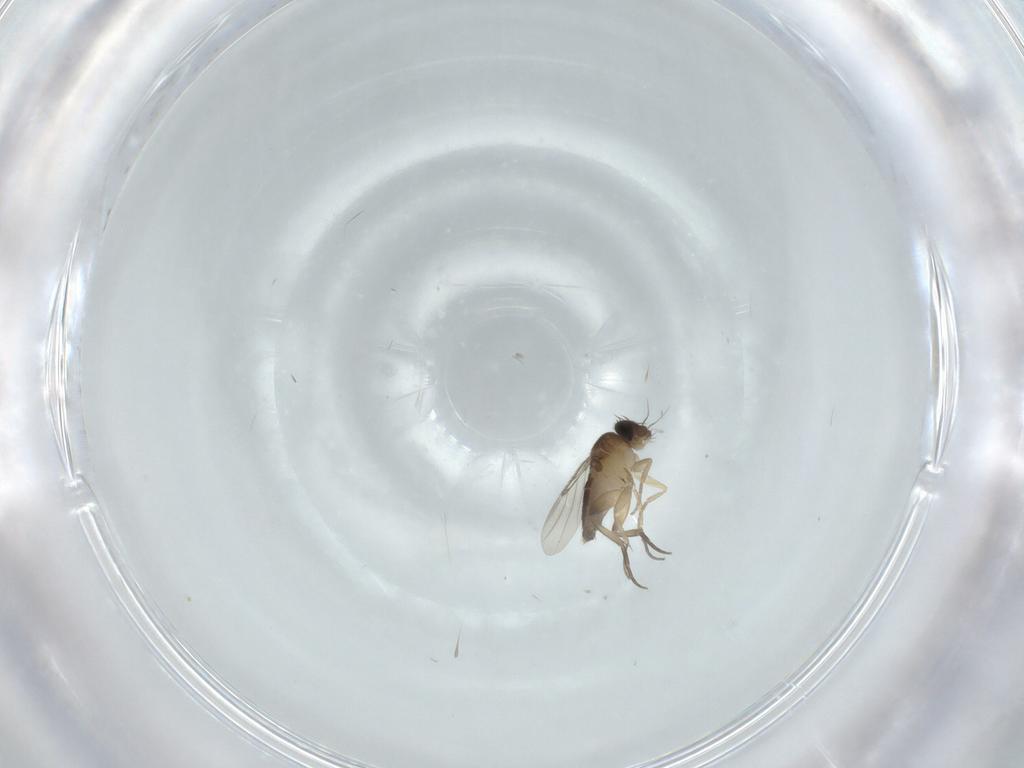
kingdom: Animalia
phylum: Arthropoda
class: Insecta
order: Diptera
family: Phoridae
